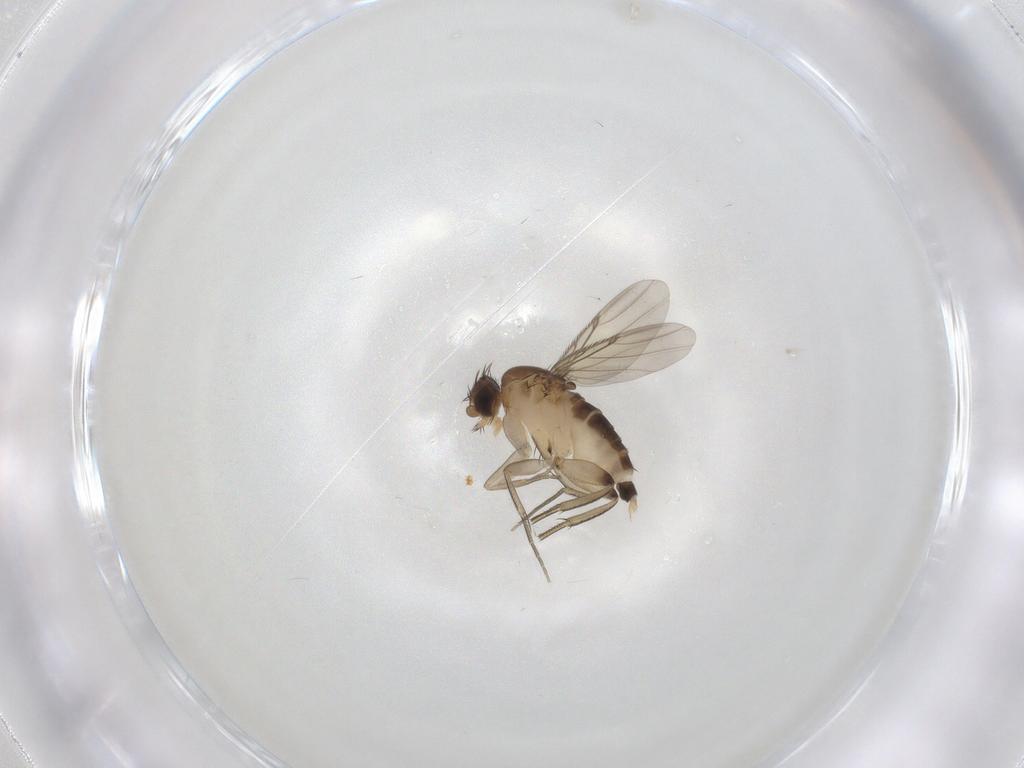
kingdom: Animalia
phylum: Arthropoda
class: Insecta
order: Diptera
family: Phoridae
